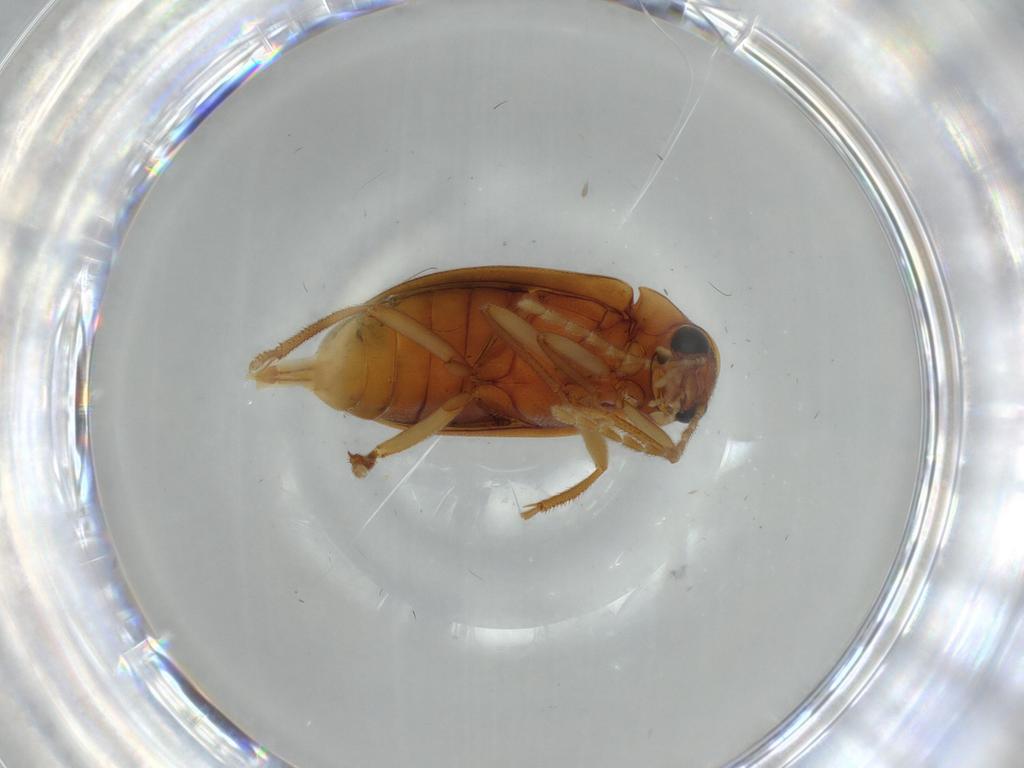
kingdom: Animalia
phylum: Arthropoda
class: Insecta
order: Coleoptera
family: Ptilodactylidae
